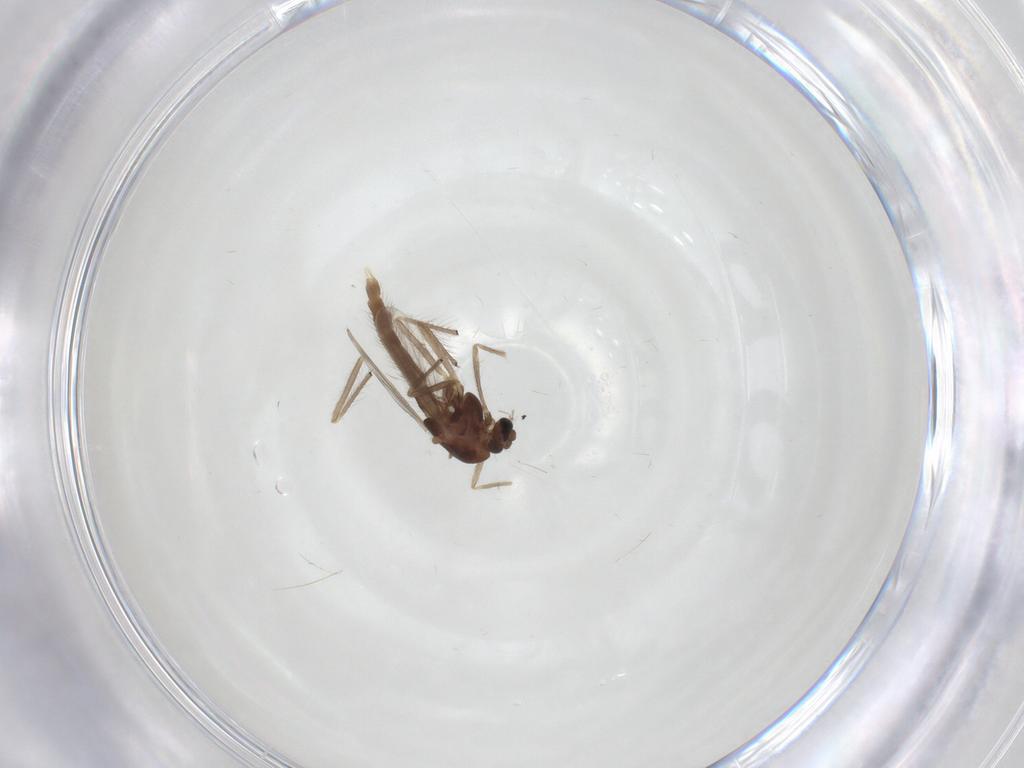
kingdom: Animalia
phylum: Arthropoda
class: Insecta
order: Diptera
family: Chironomidae
